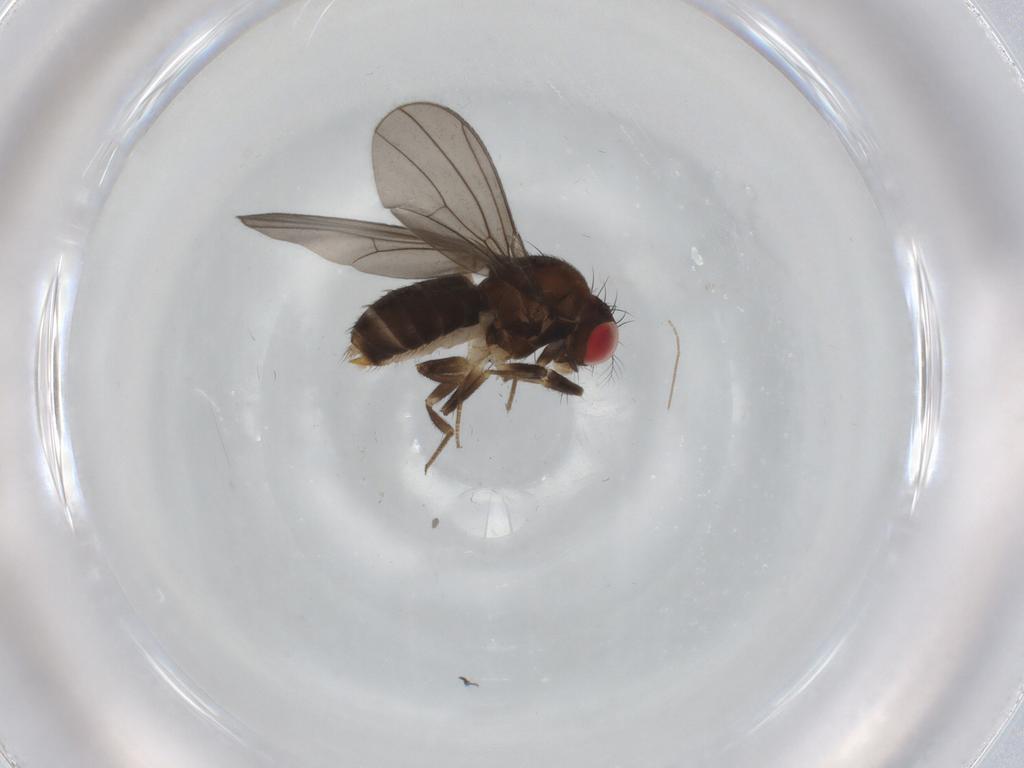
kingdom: Animalia
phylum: Arthropoda
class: Insecta
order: Diptera
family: Drosophilidae
